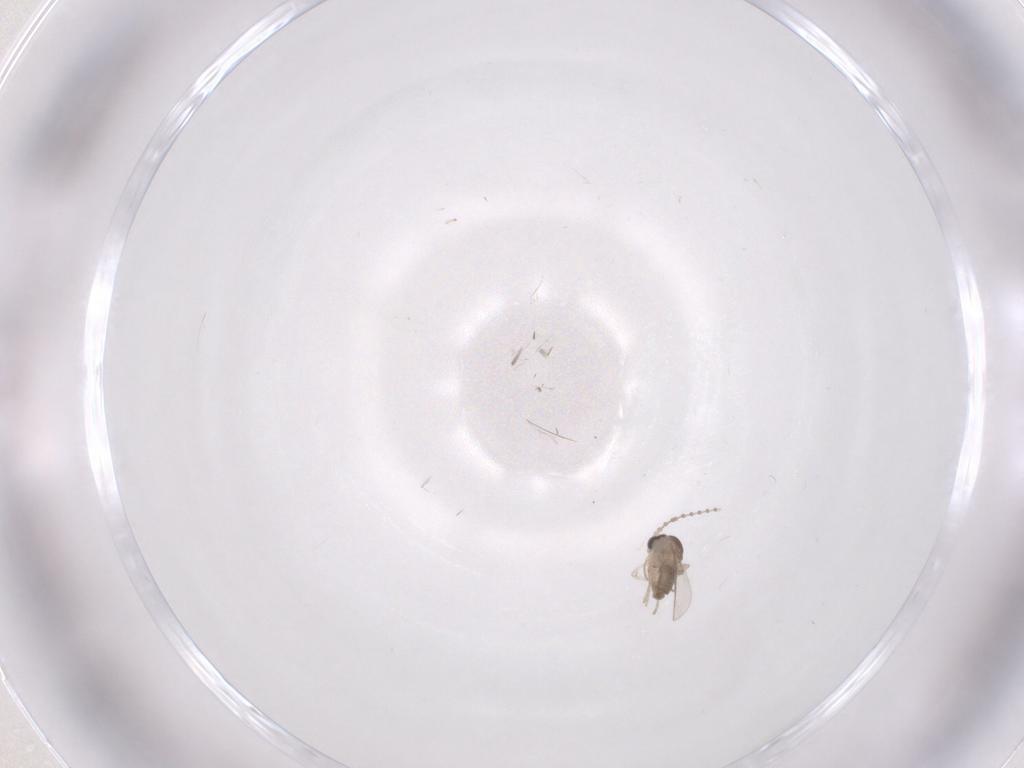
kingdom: Animalia
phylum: Arthropoda
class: Insecta
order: Diptera
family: Cecidomyiidae
